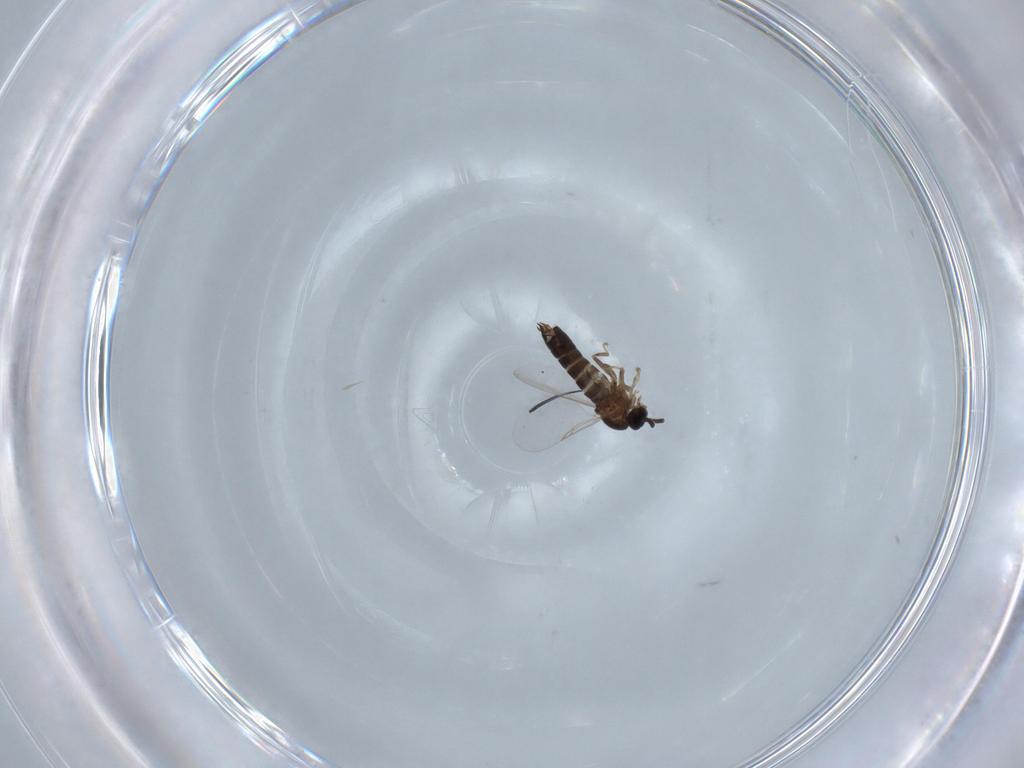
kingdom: Animalia
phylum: Arthropoda
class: Insecta
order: Diptera
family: Scatopsidae
